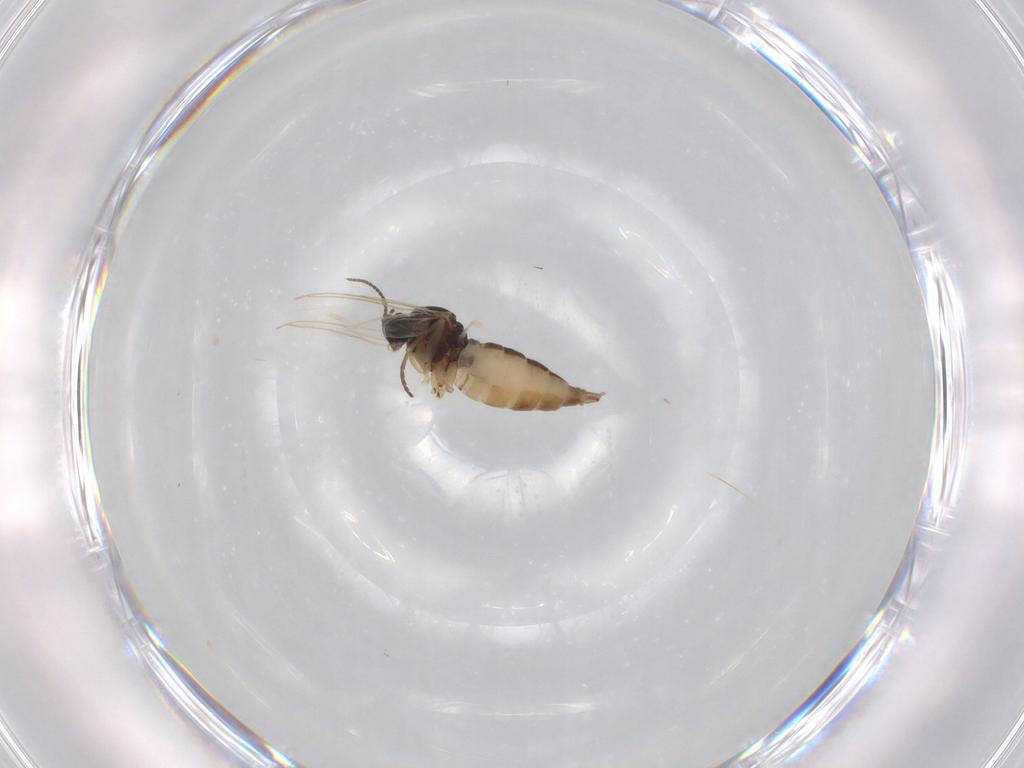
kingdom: Animalia
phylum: Arthropoda
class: Insecta
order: Diptera
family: Sciaridae
